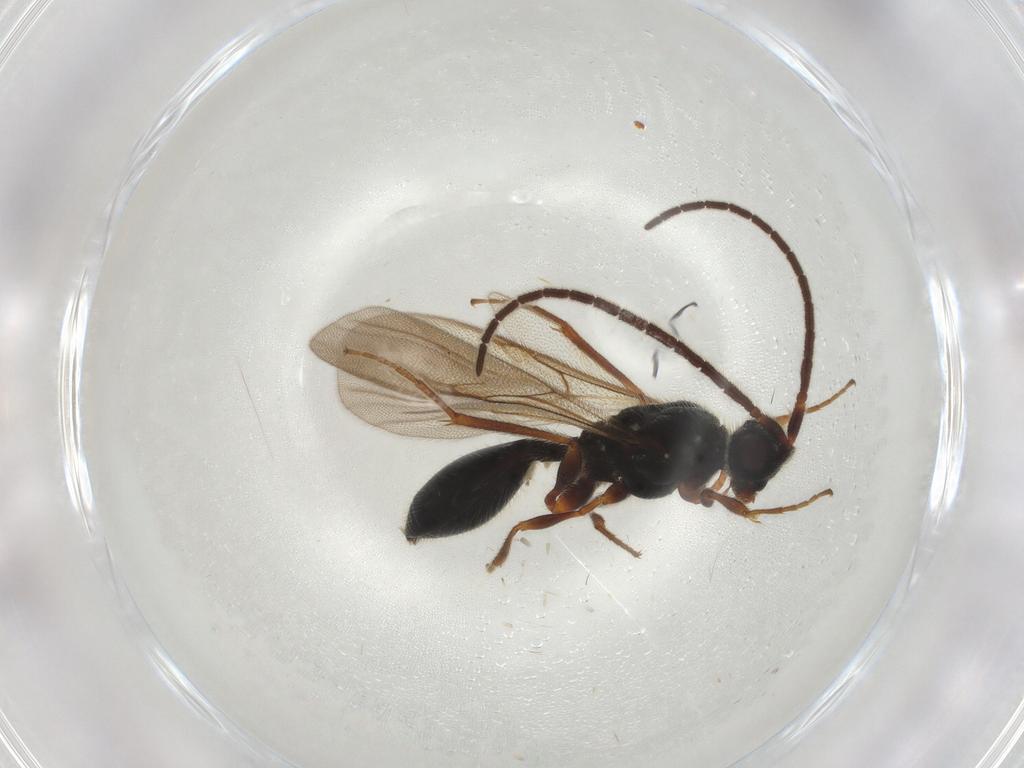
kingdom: Animalia
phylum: Arthropoda
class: Insecta
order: Hymenoptera
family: Diapriidae
